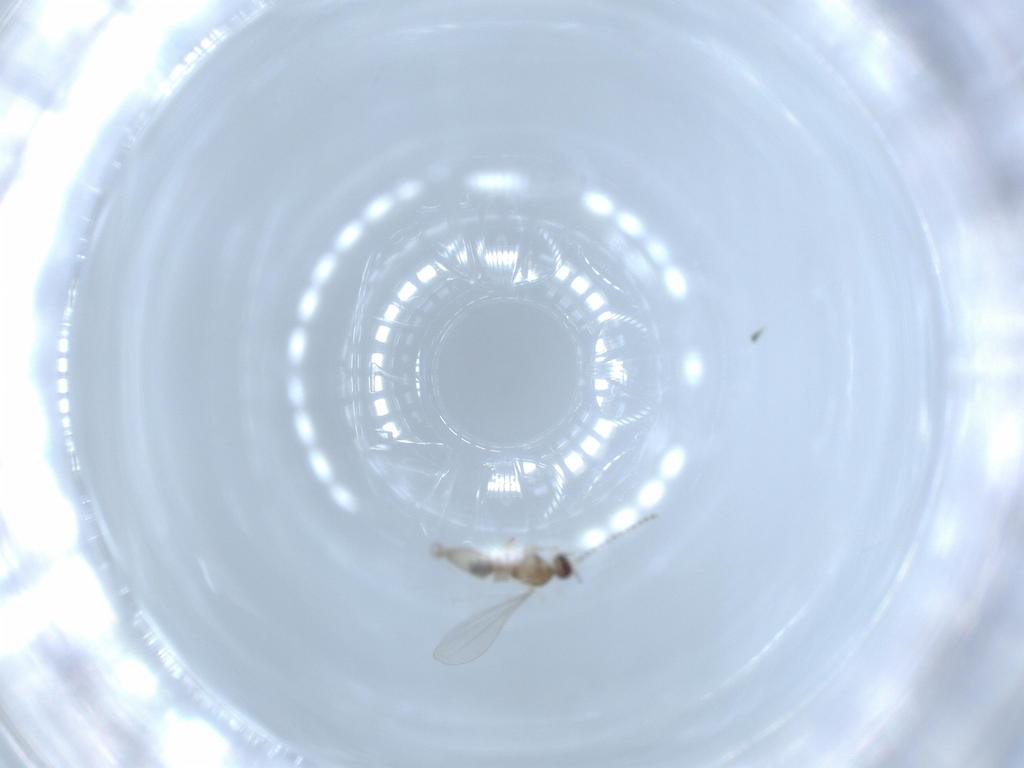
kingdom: Animalia
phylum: Arthropoda
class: Insecta
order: Diptera
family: Cecidomyiidae
